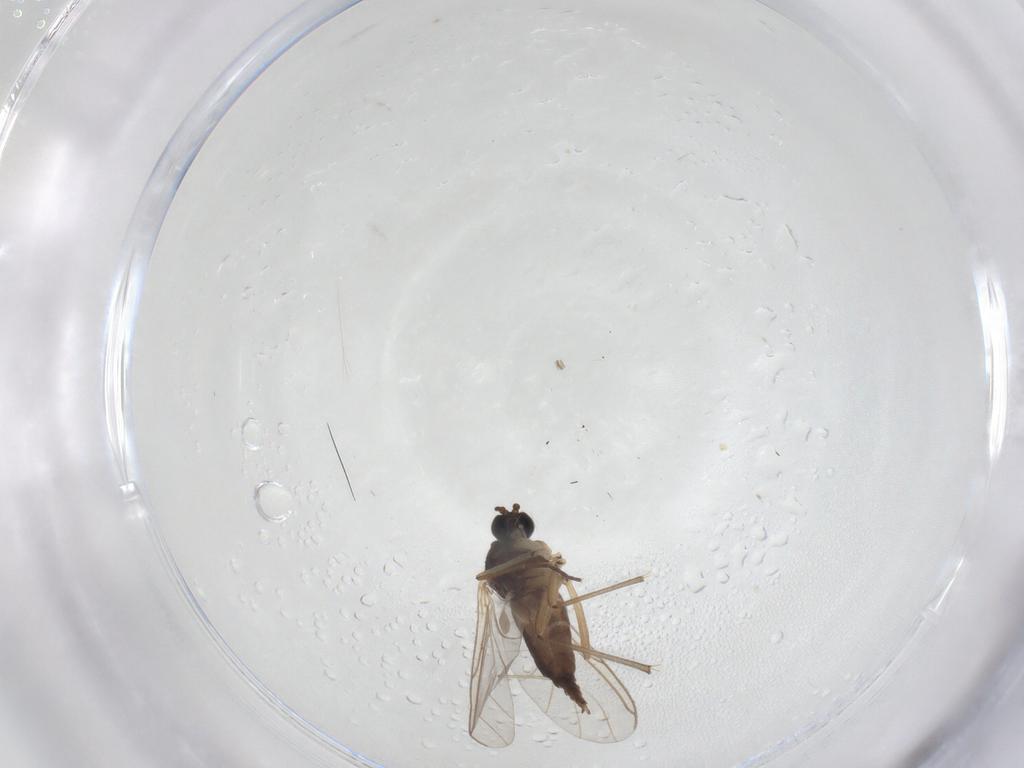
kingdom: Animalia
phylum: Arthropoda
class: Insecta
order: Diptera
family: Sciaridae
